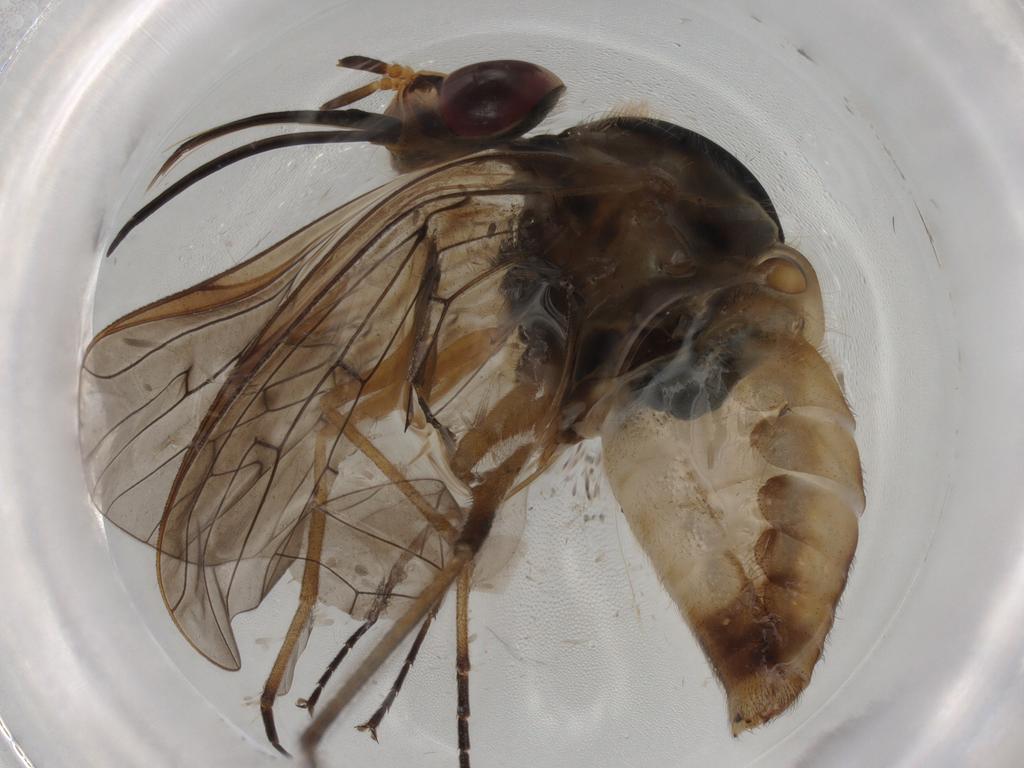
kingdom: Animalia
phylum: Arthropoda
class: Insecta
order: Diptera
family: Bombyliidae
